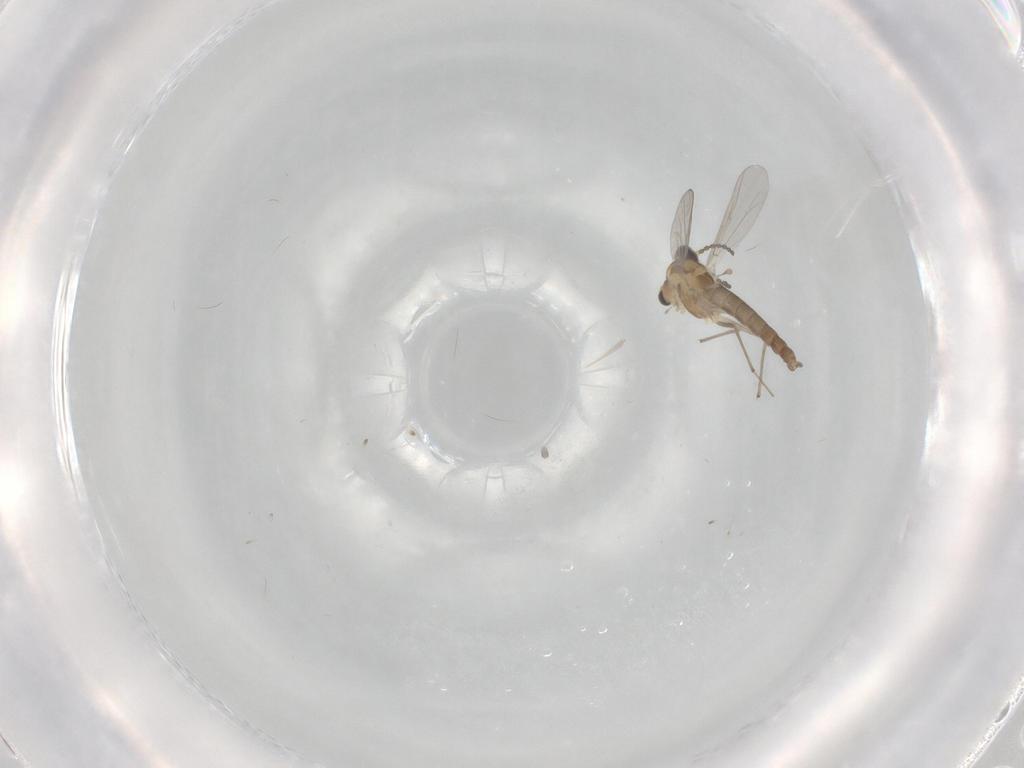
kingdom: Animalia
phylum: Arthropoda
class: Insecta
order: Diptera
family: Chironomidae
